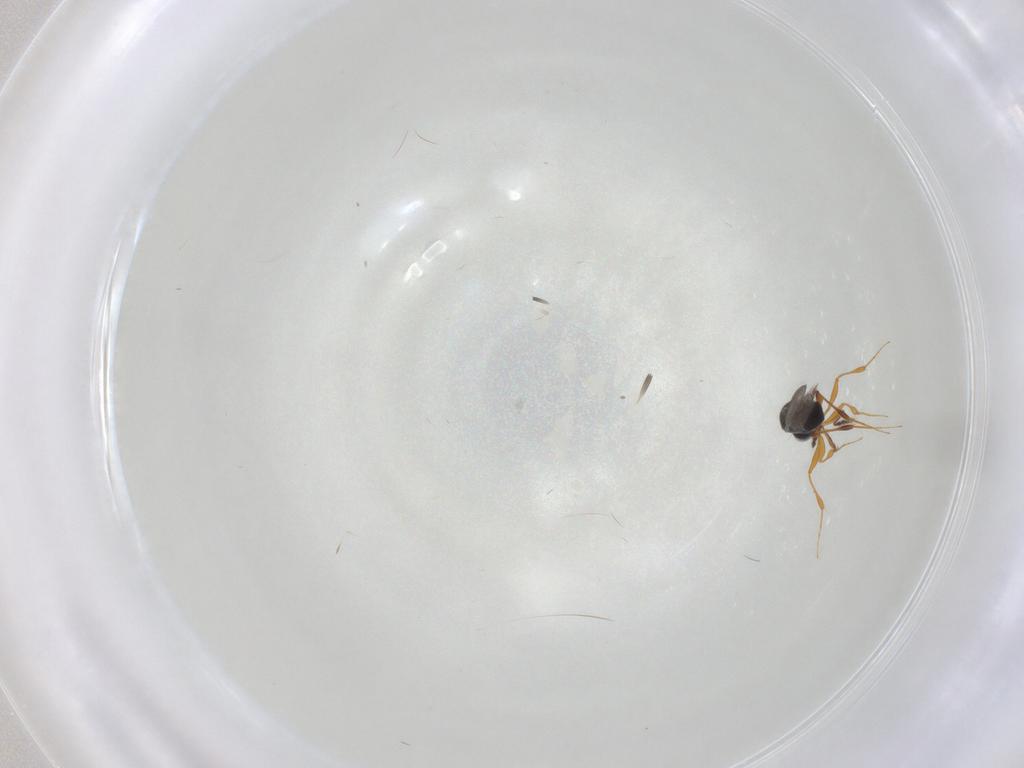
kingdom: Animalia
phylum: Arthropoda
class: Insecta
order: Hymenoptera
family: Platygastridae
